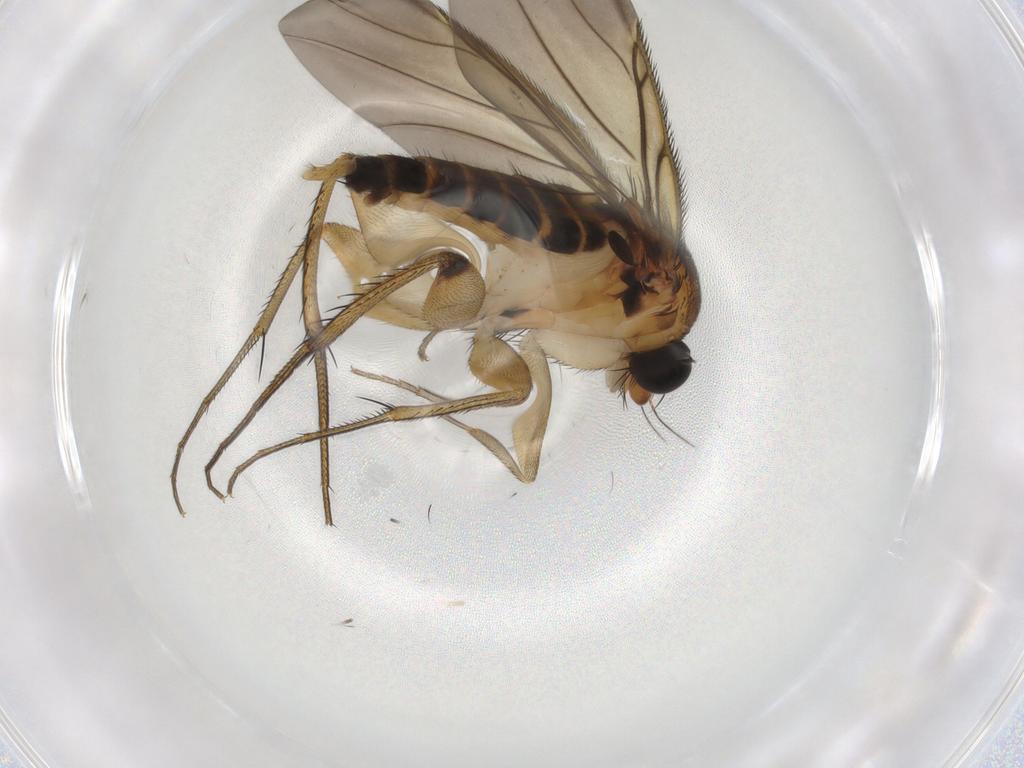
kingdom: Animalia
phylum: Arthropoda
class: Insecta
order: Diptera
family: Phoridae
